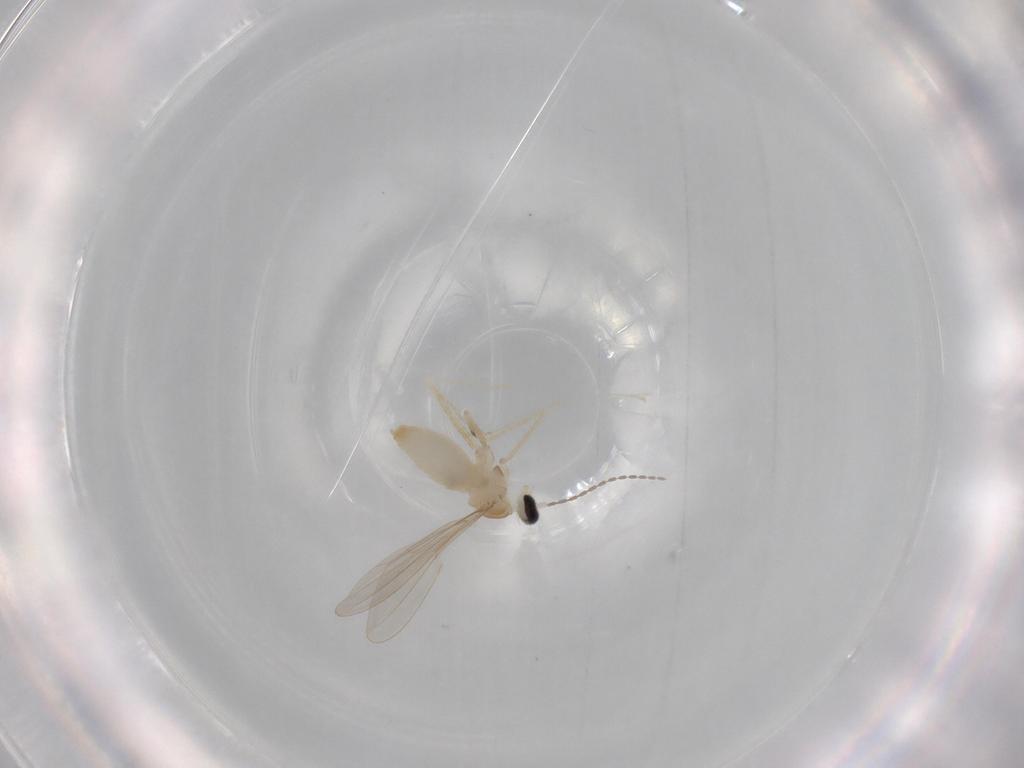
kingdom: Animalia
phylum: Arthropoda
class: Insecta
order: Diptera
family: Cecidomyiidae
